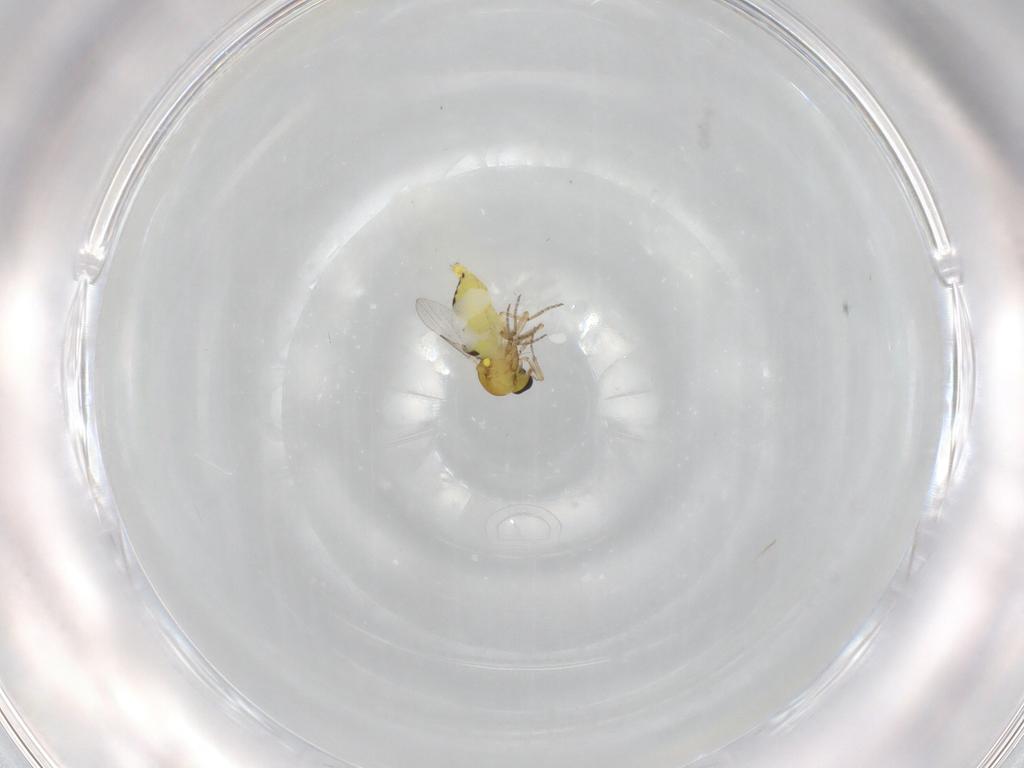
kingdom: Animalia
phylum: Arthropoda
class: Insecta
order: Diptera
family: Ceratopogonidae
